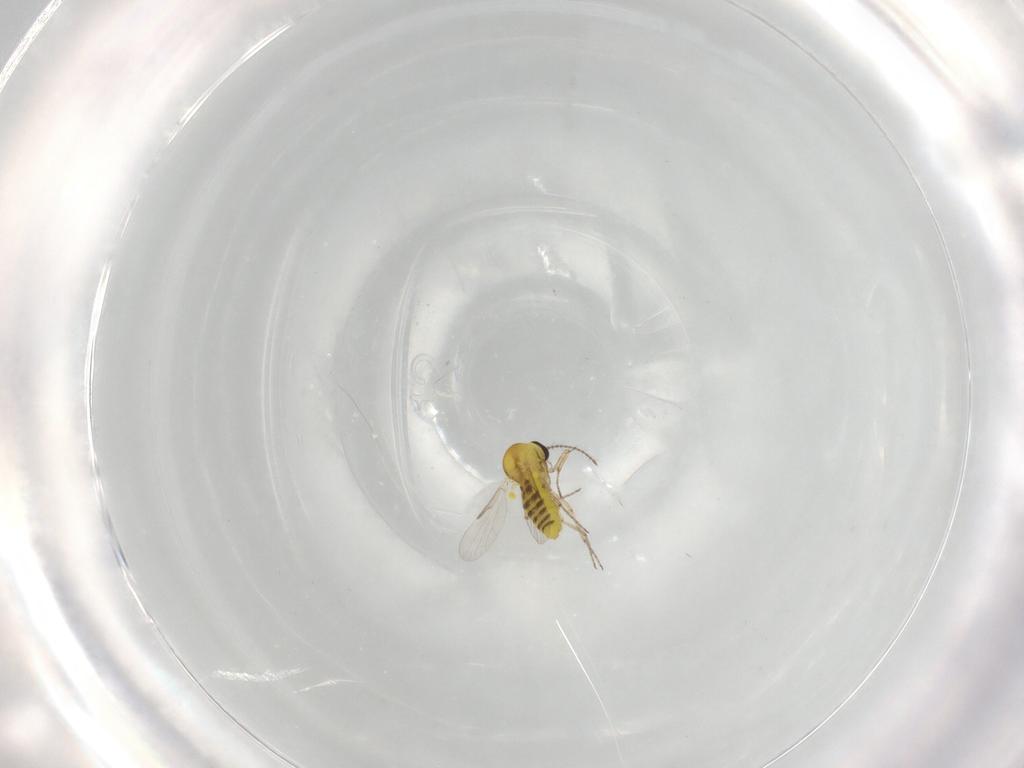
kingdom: Animalia
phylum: Arthropoda
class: Insecta
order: Diptera
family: Ceratopogonidae
